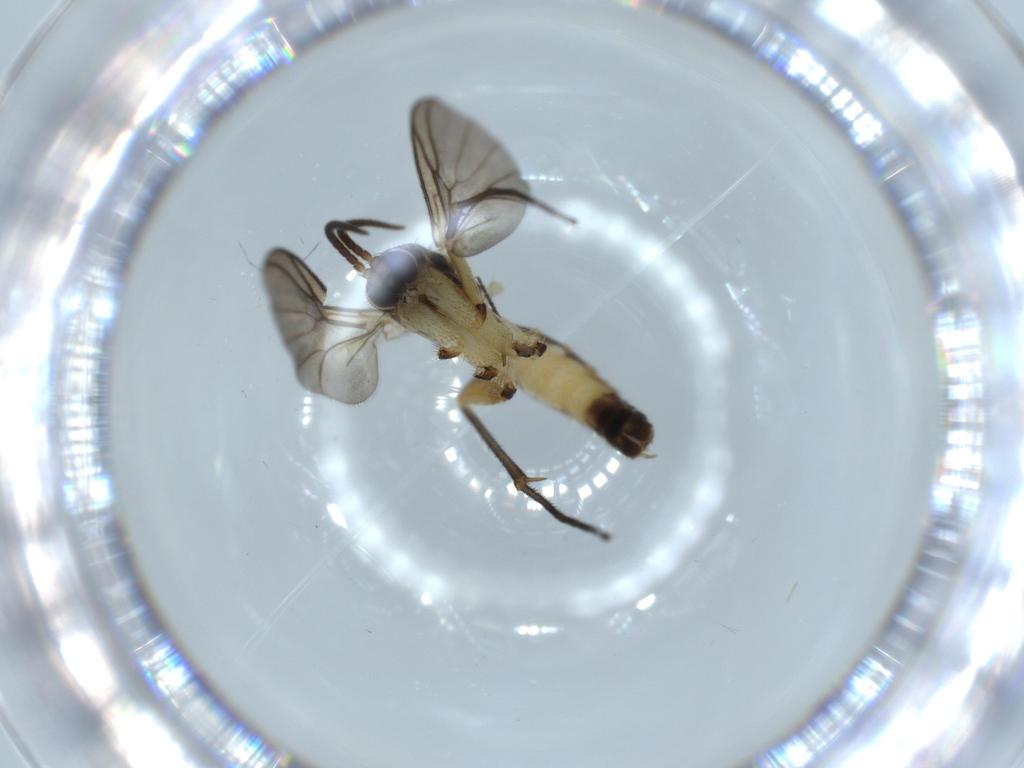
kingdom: Animalia
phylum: Arthropoda
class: Insecta
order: Diptera
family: Mycetophilidae
